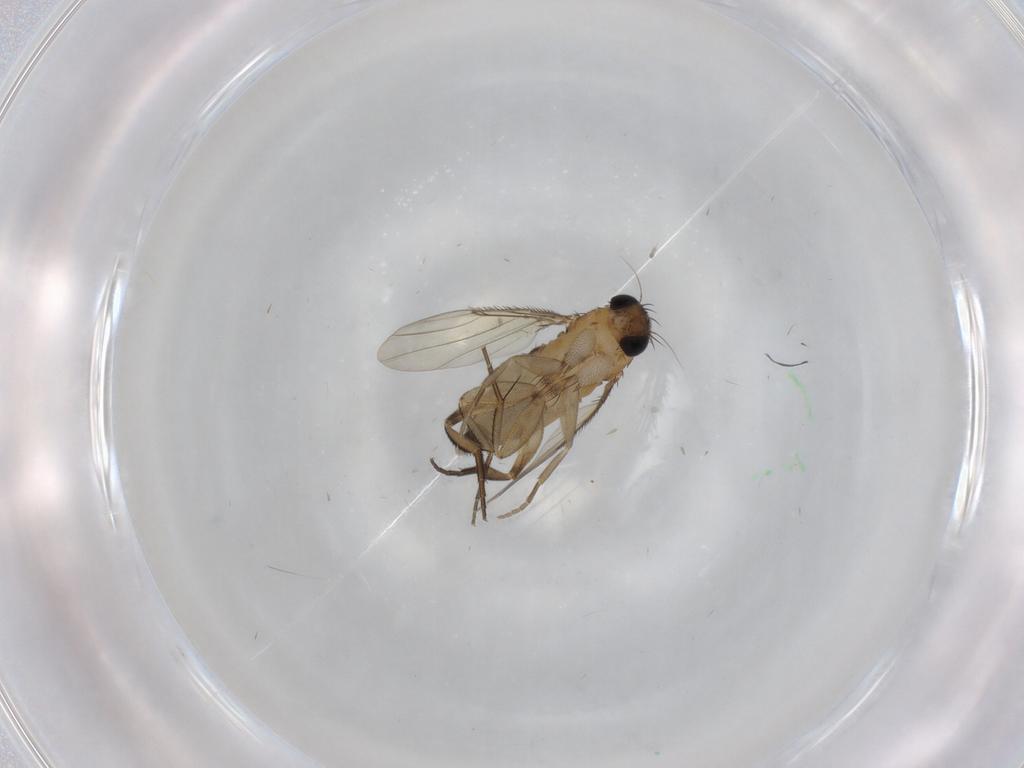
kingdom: Animalia
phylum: Arthropoda
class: Insecta
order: Diptera
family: Phoridae
